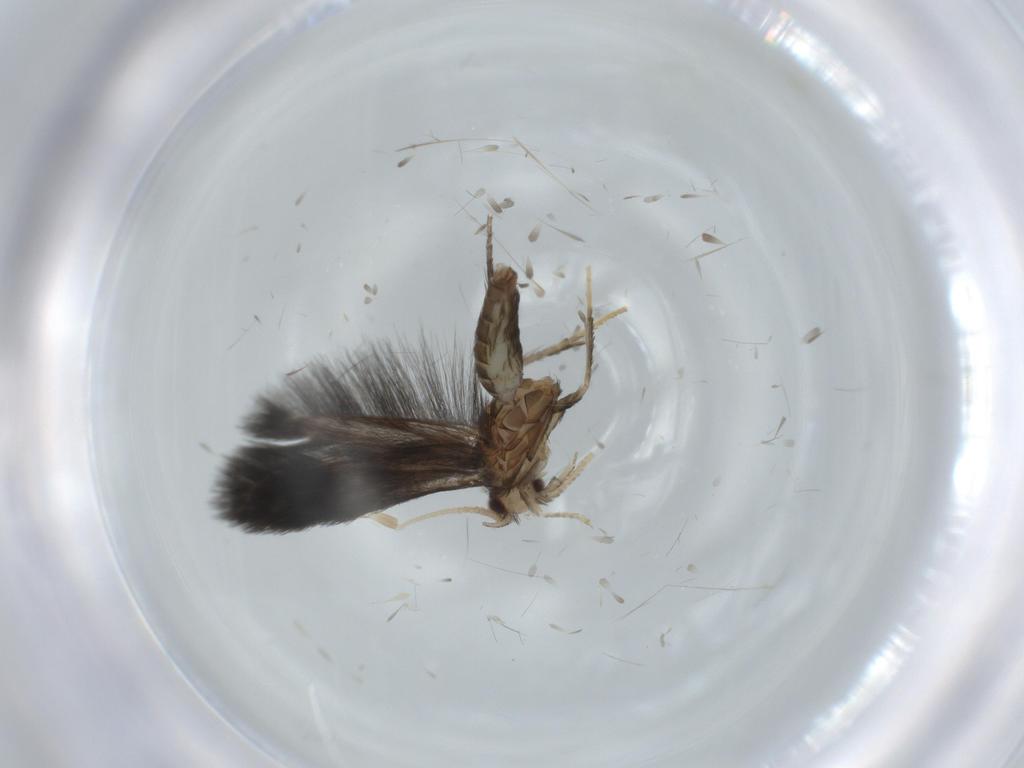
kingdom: Animalia
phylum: Arthropoda
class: Insecta
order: Trichoptera
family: Hydroptilidae
